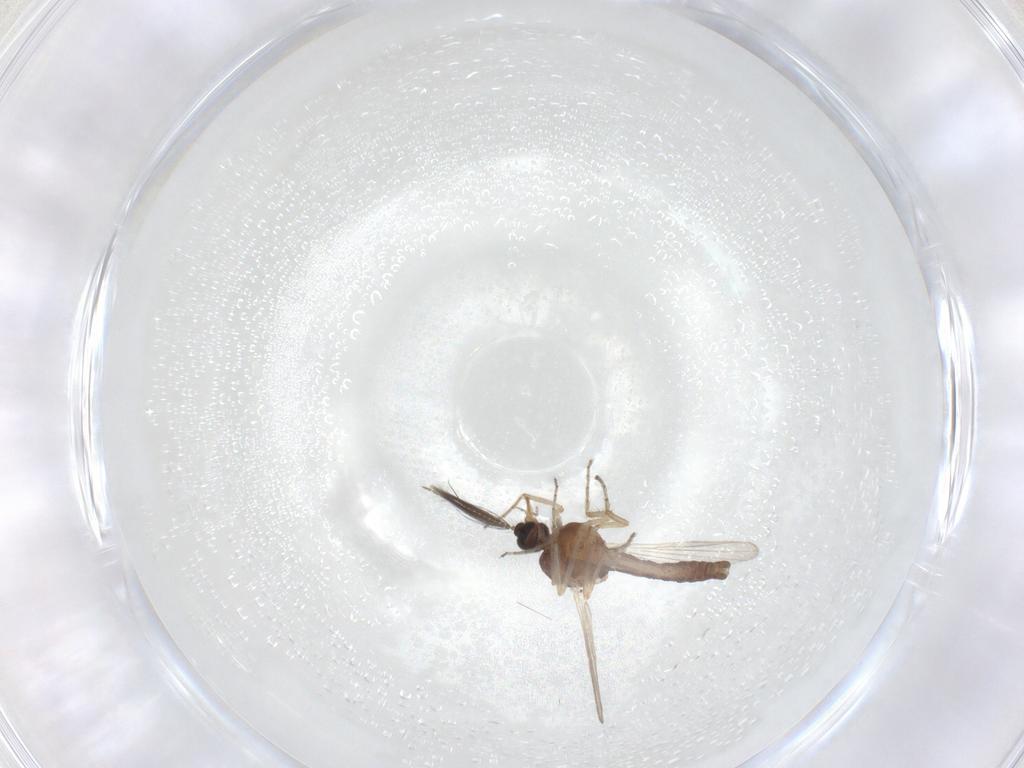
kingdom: Animalia
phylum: Arthropoda
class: Insecta
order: Diptera
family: Ceratopogonidae
